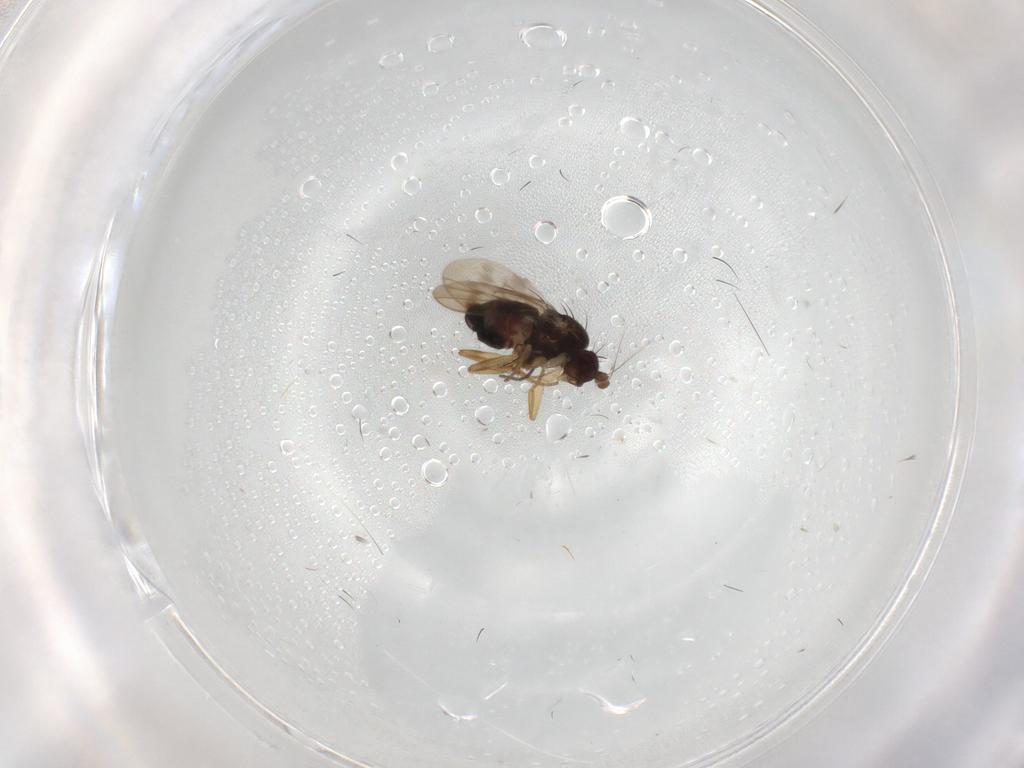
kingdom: Animalia
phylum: Arthropoda
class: Insecta
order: Diptera
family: Sphaeroceridae
